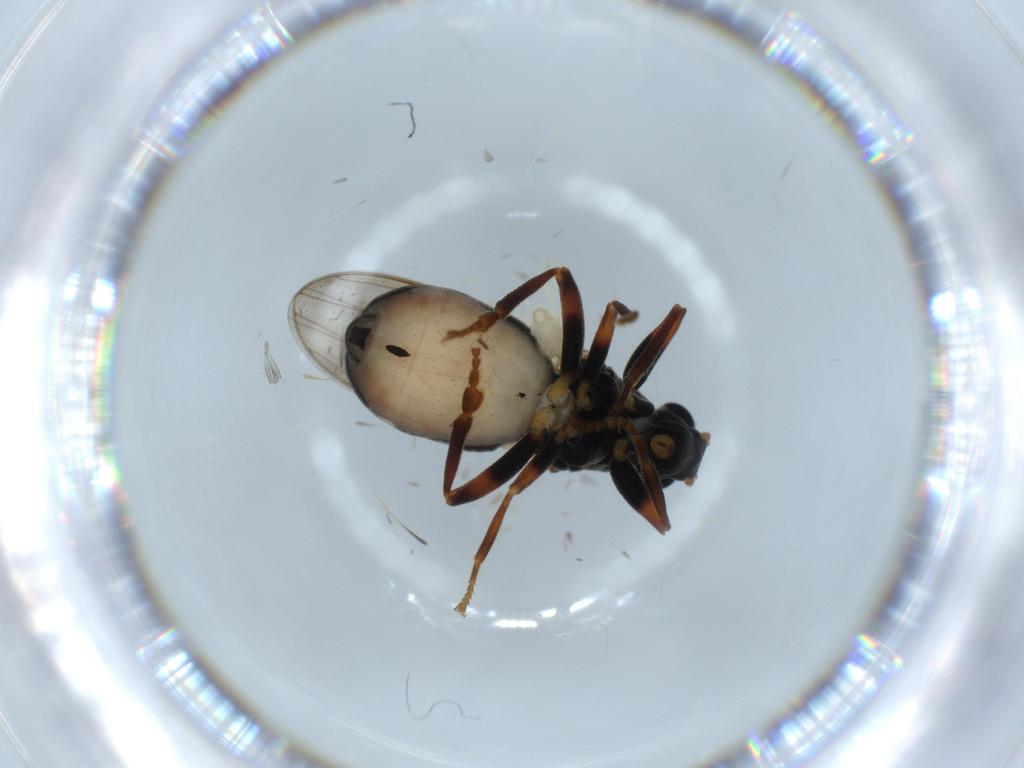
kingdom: Animalia
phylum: Arthropoda
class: Insecta
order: Diptera
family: Sphaeroceridae
